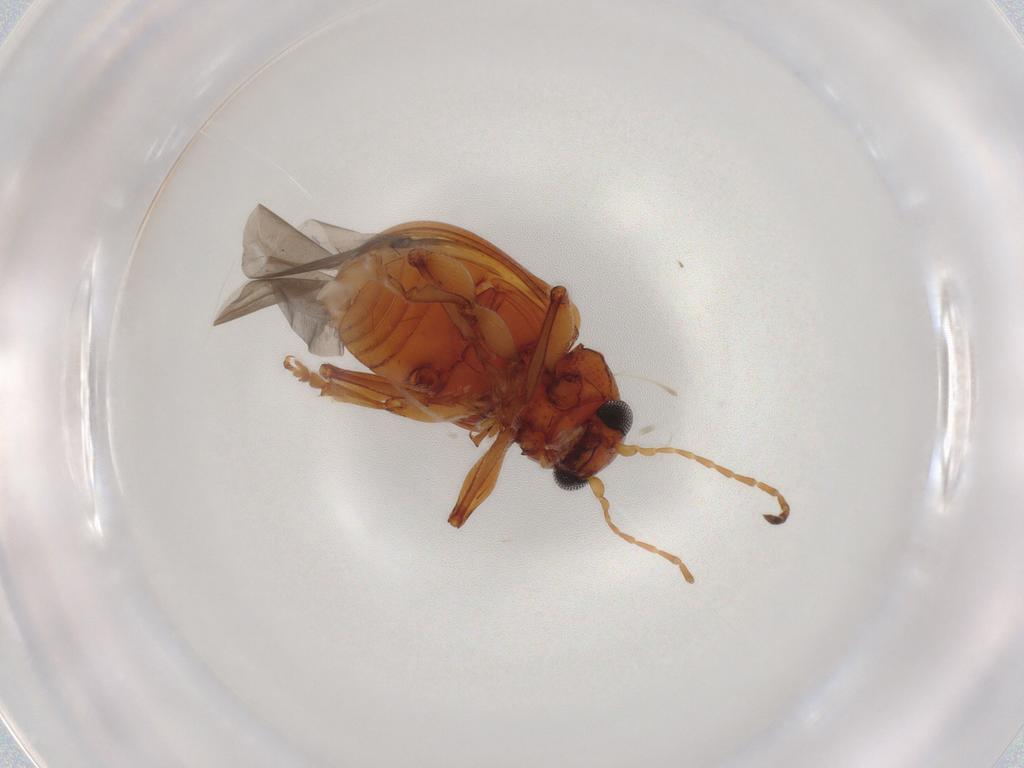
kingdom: Animalia
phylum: Arthropoda
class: Insecta
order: Coleoptera
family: Chrysomelidae
